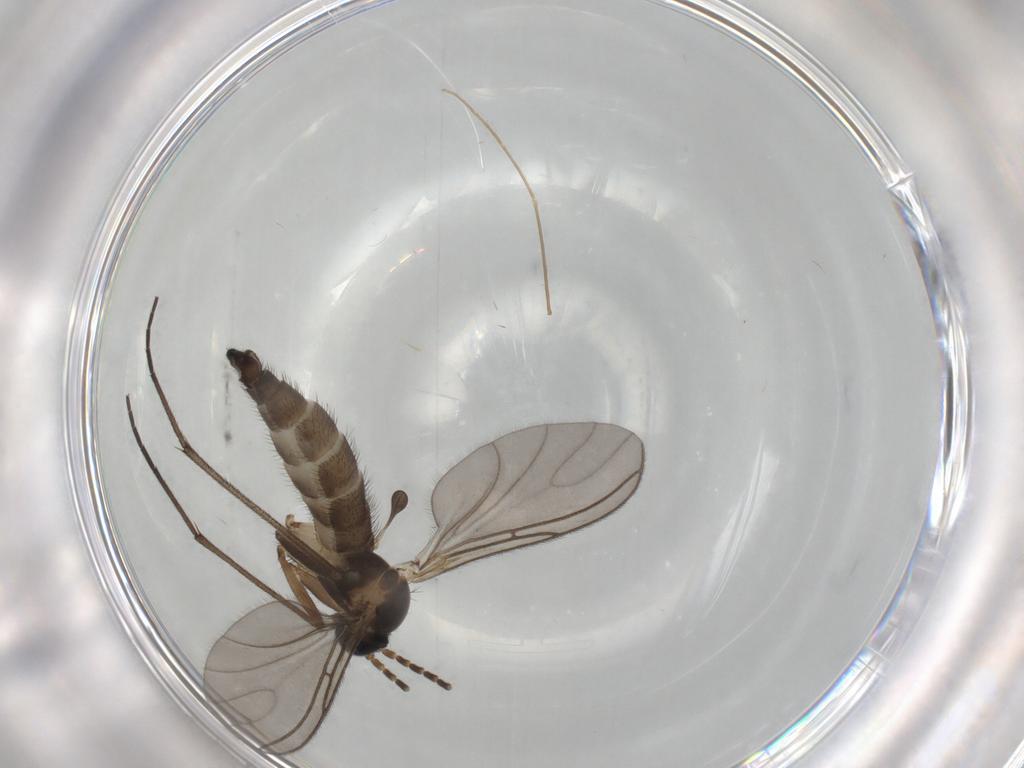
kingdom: Animalia
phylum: Arthropoda
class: Insecta
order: Diptera
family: Sciaridae
